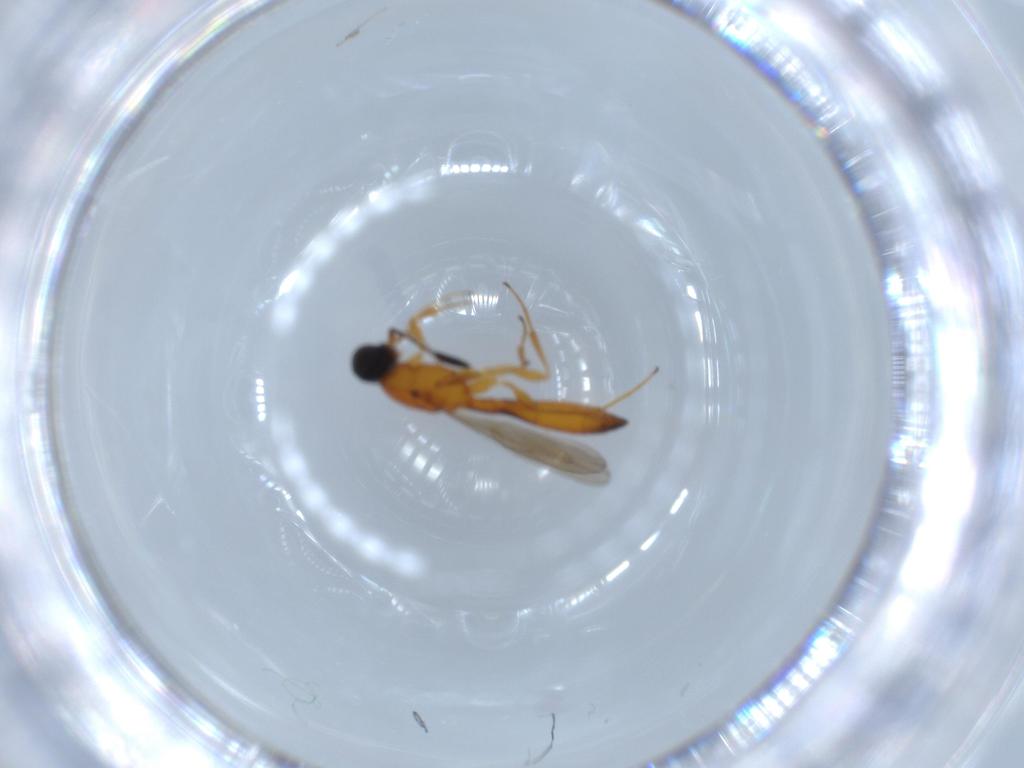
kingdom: Animalia
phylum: Arthropoda
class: Insecta
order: Hymenoptera
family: Scelionidae
